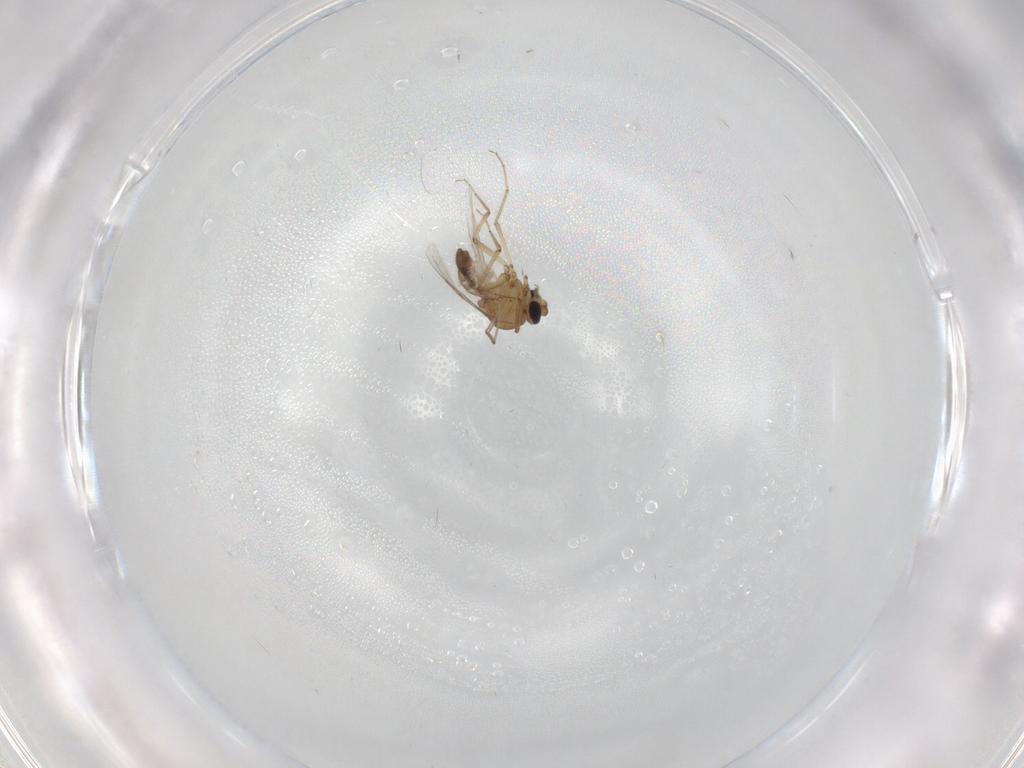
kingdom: Animalia
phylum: Arthropoda
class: Insecta
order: Diptera
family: Ceratopogonidae
